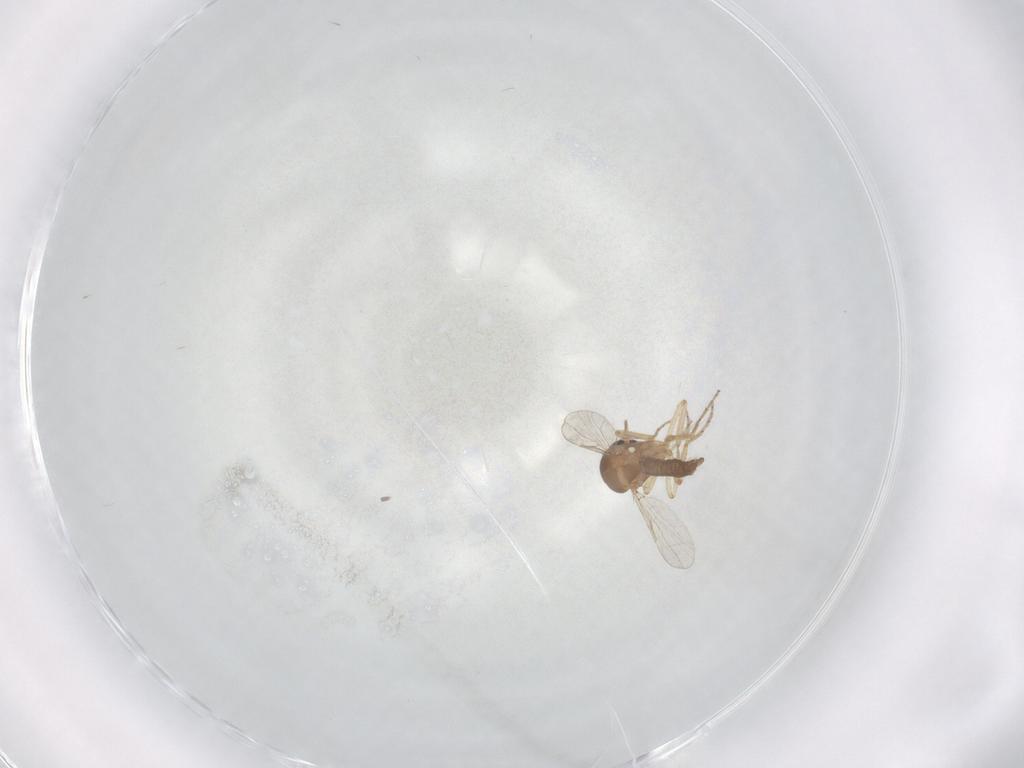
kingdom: Animalia
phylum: Arthropoda
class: Insecta
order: Diptera
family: Ceratopogonidae
